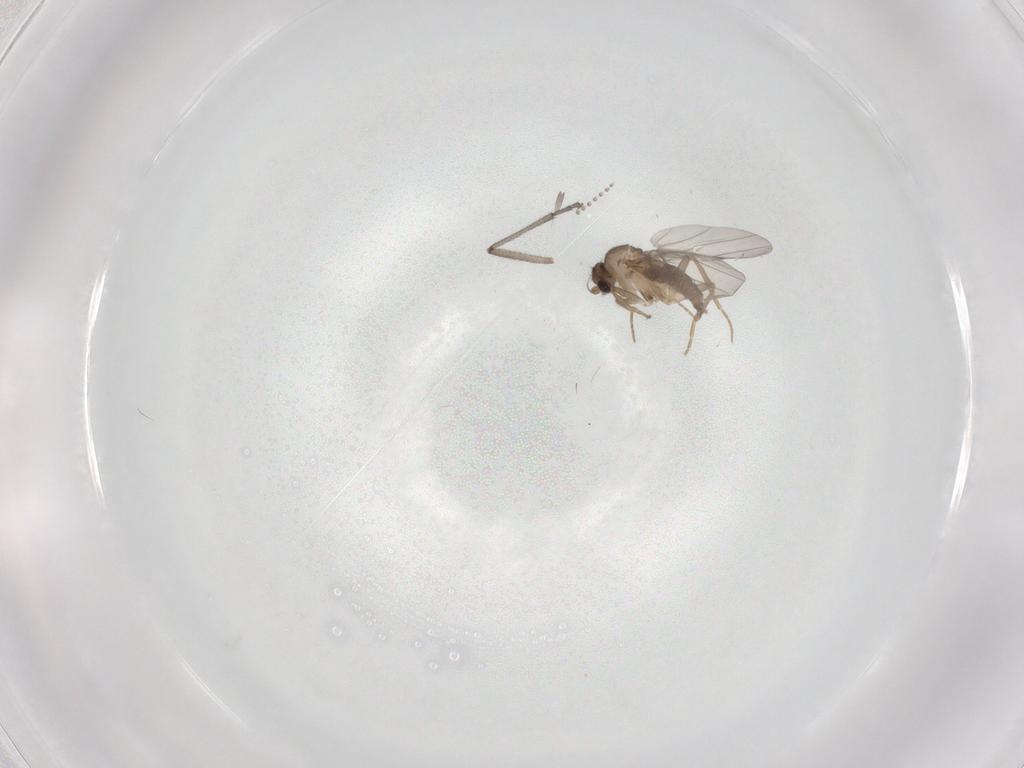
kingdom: Animalia
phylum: Arthropoda
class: Insecta
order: Diptera
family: Sciaridae
